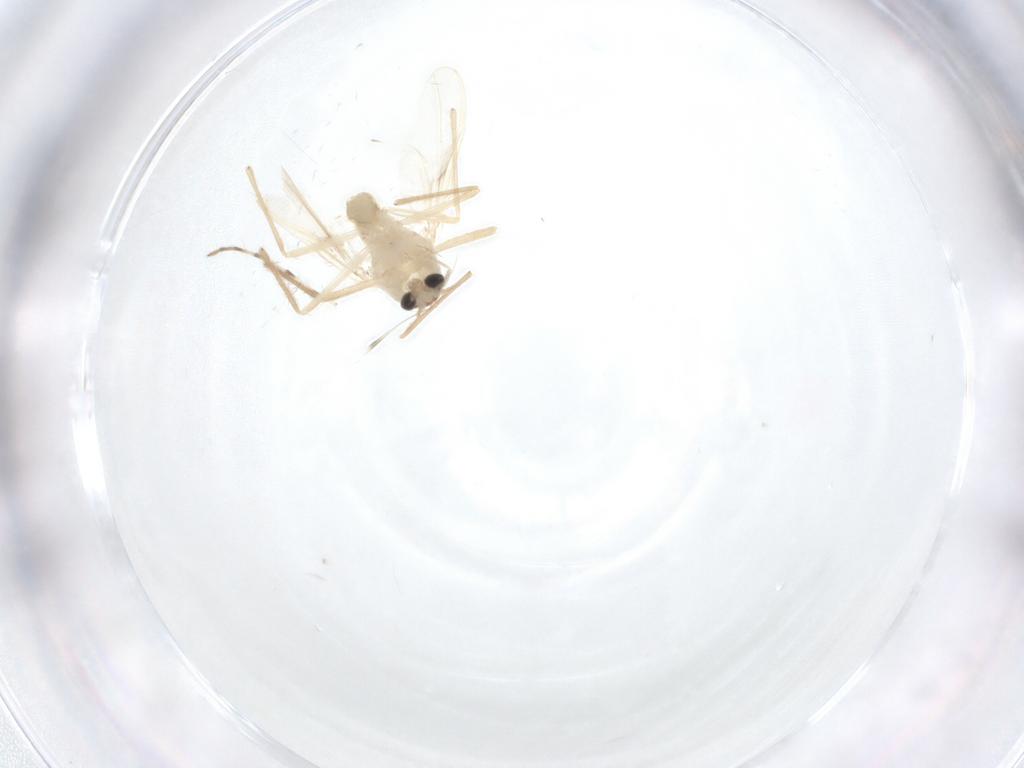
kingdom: Animalia
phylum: Arthropoda
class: Insecta
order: Diptera
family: Chironomidae
